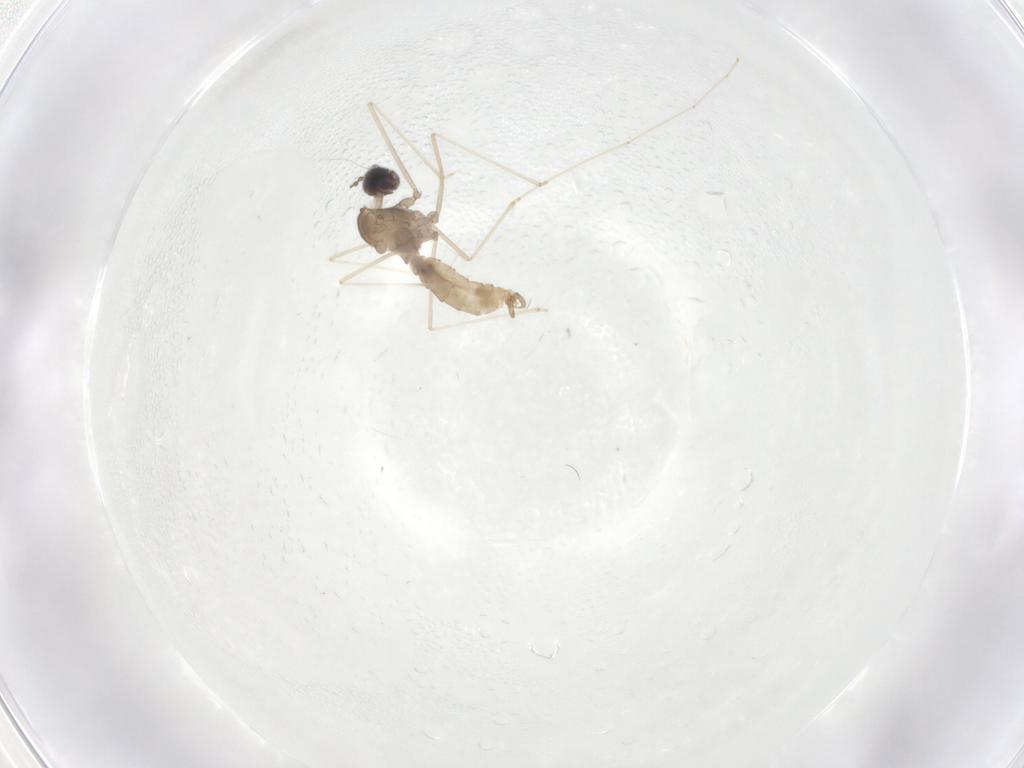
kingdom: Animalia
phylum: Arthropoda
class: Insecta
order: Diptera
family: Cecidomyiidae
